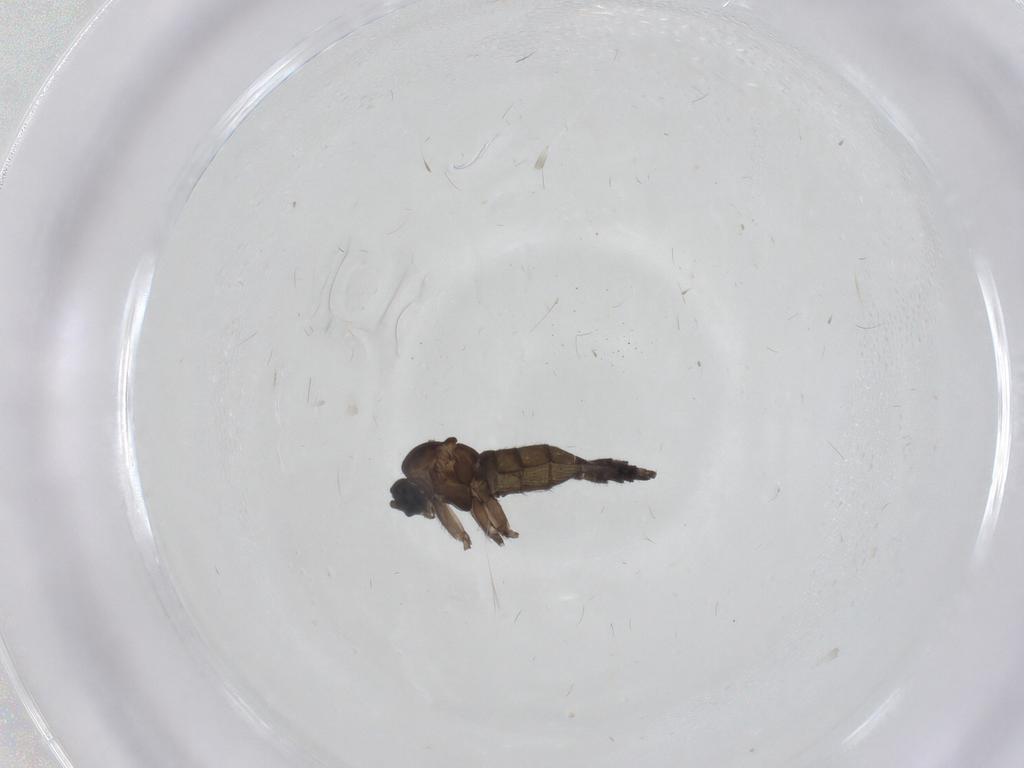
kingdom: Animalia
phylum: Arthropoda
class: Insecta
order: Diptera
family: Sciaridae
